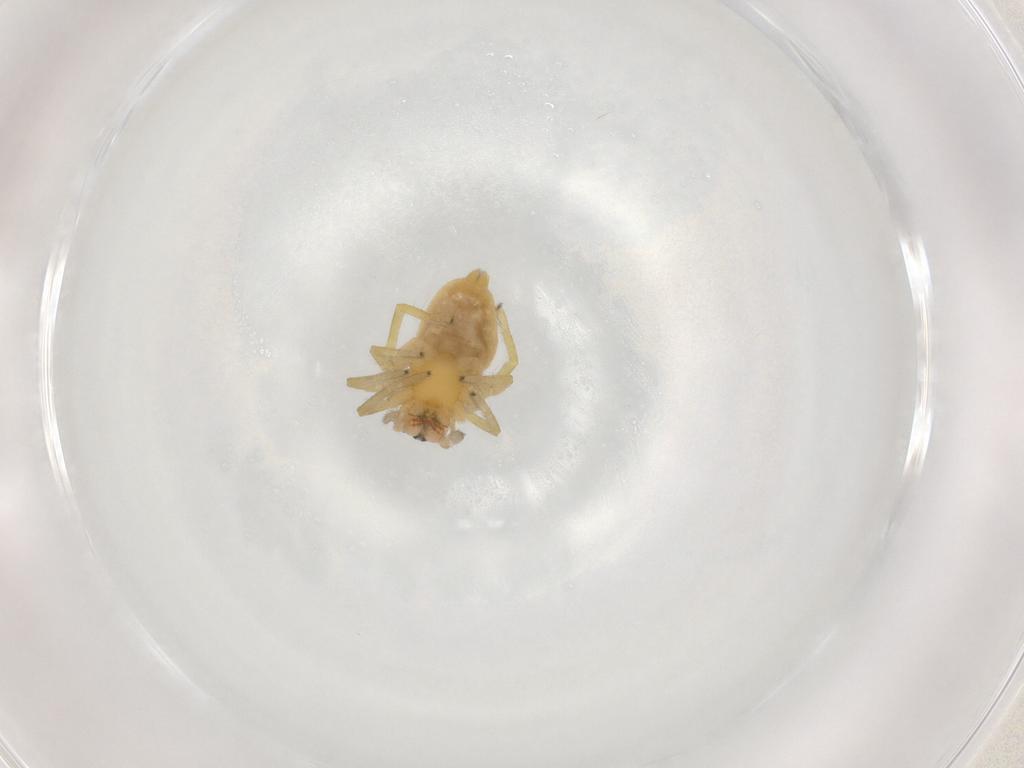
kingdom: Animalia
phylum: Arthropoda
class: Arachnida
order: Araneae
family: Cheiracanthiidae
